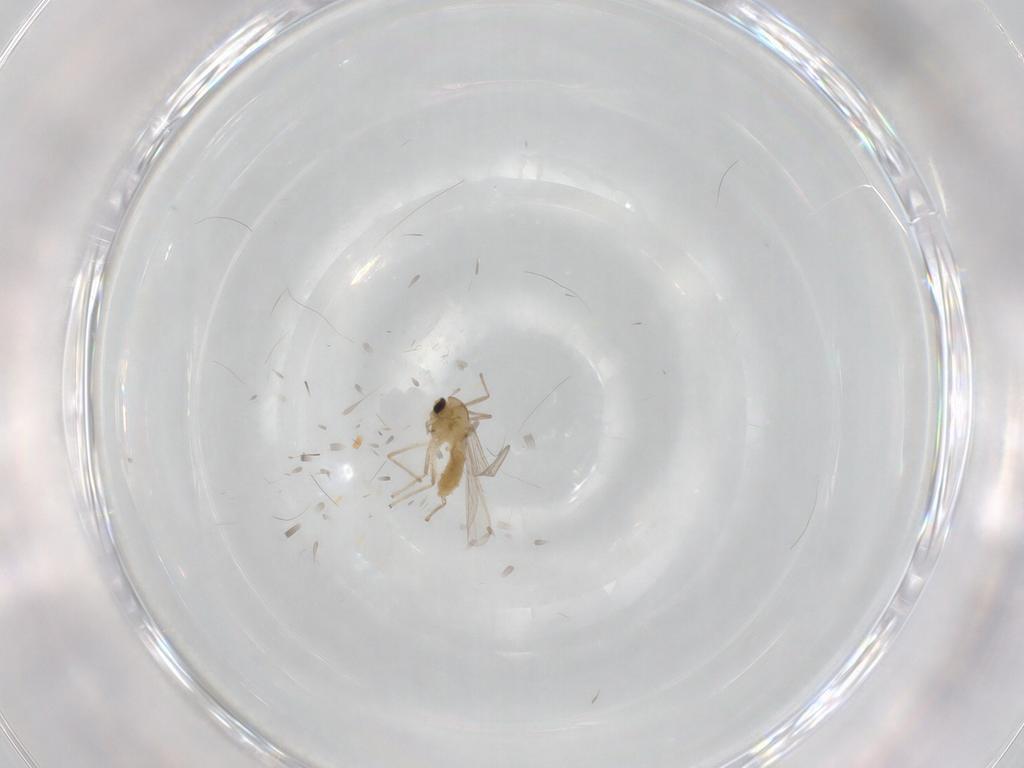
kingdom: Animalia
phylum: Arthropoda
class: Insecta
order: Diptera
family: Chironomidae
